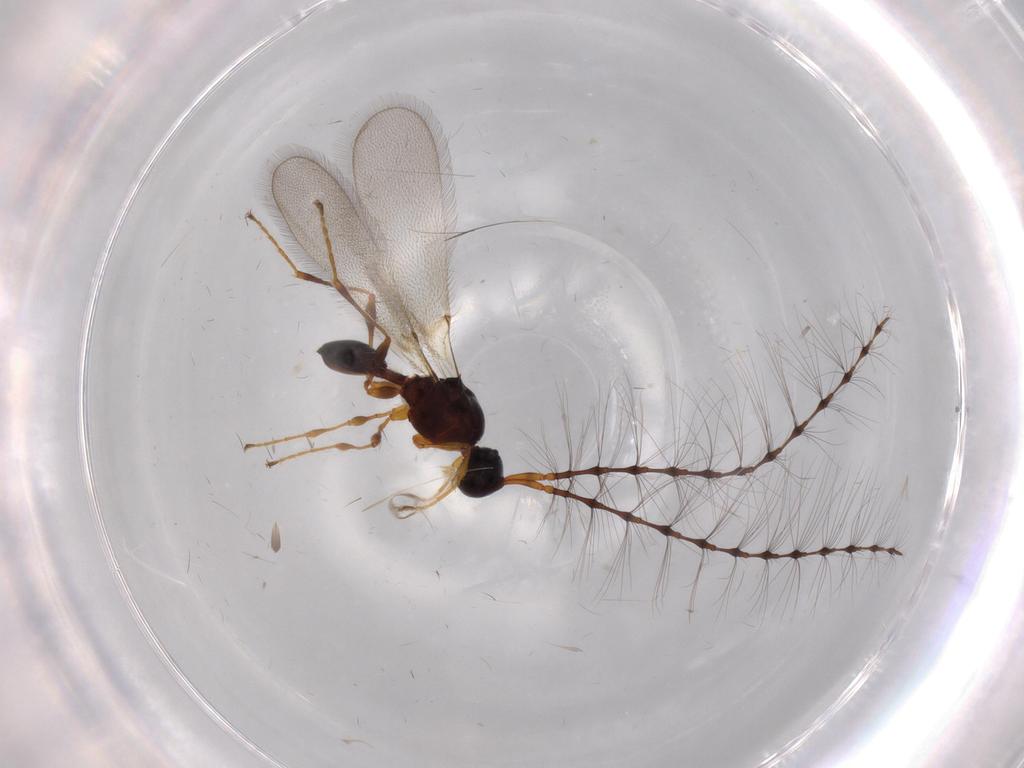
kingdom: Animalia
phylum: Arthropoda
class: Insecta
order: Hymenoptera
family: Diapriidae
